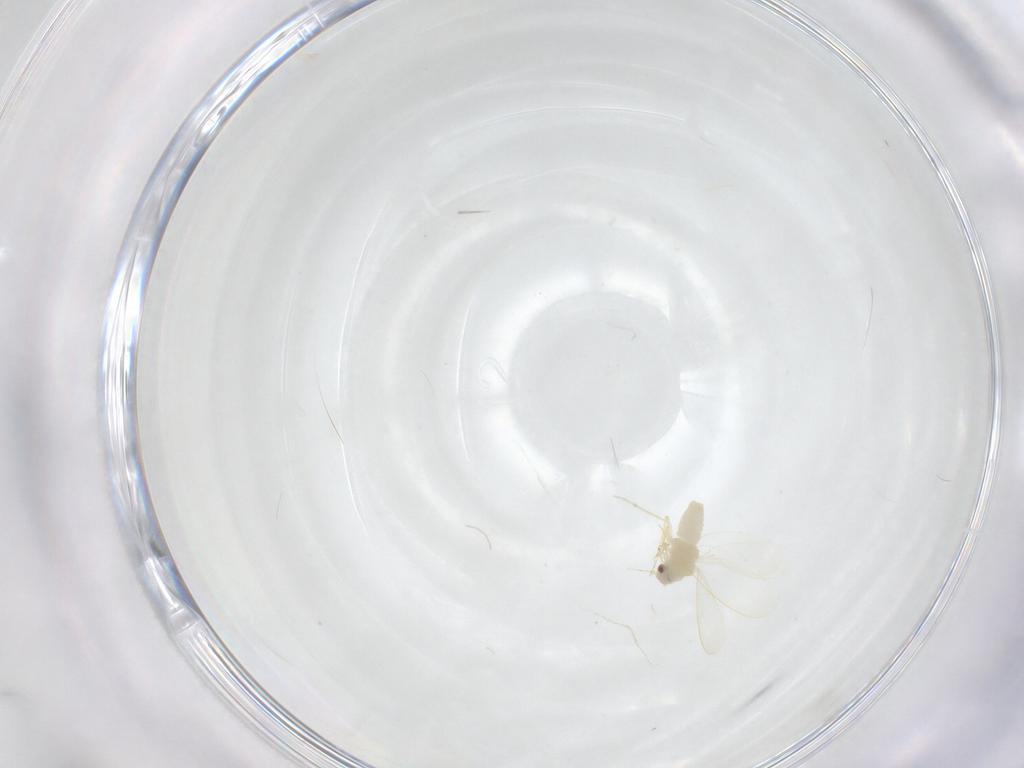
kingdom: Animalia
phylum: Arthropoda
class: Insecta
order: Hemiptera
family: Aleyrodidae
